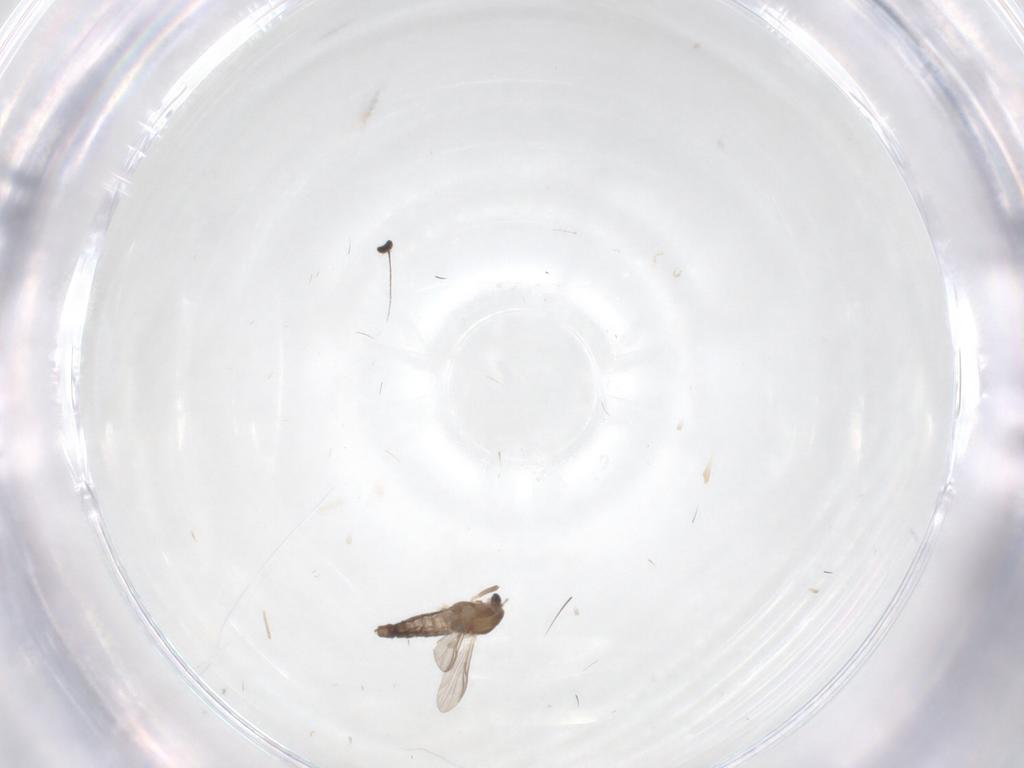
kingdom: Animalia
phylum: Arthropoda
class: Insecta
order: Diptera
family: Dolichopodidae
